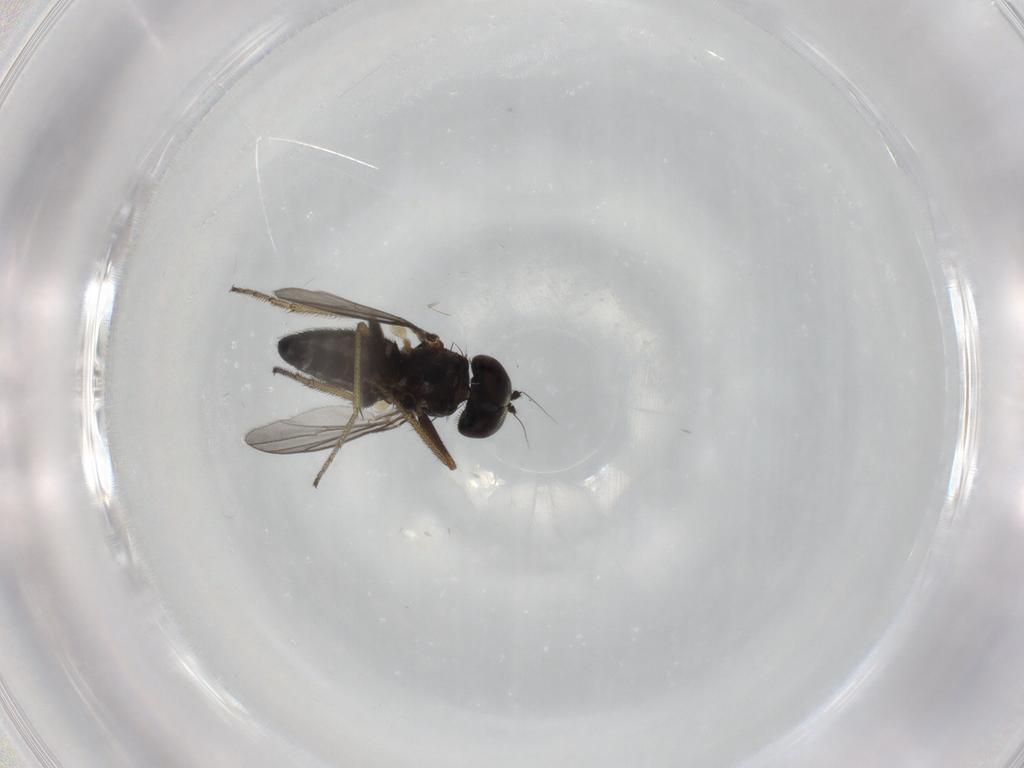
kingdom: Animalia
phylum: Arthropoda
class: Insecta
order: Diptera
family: Dolichopodidae
